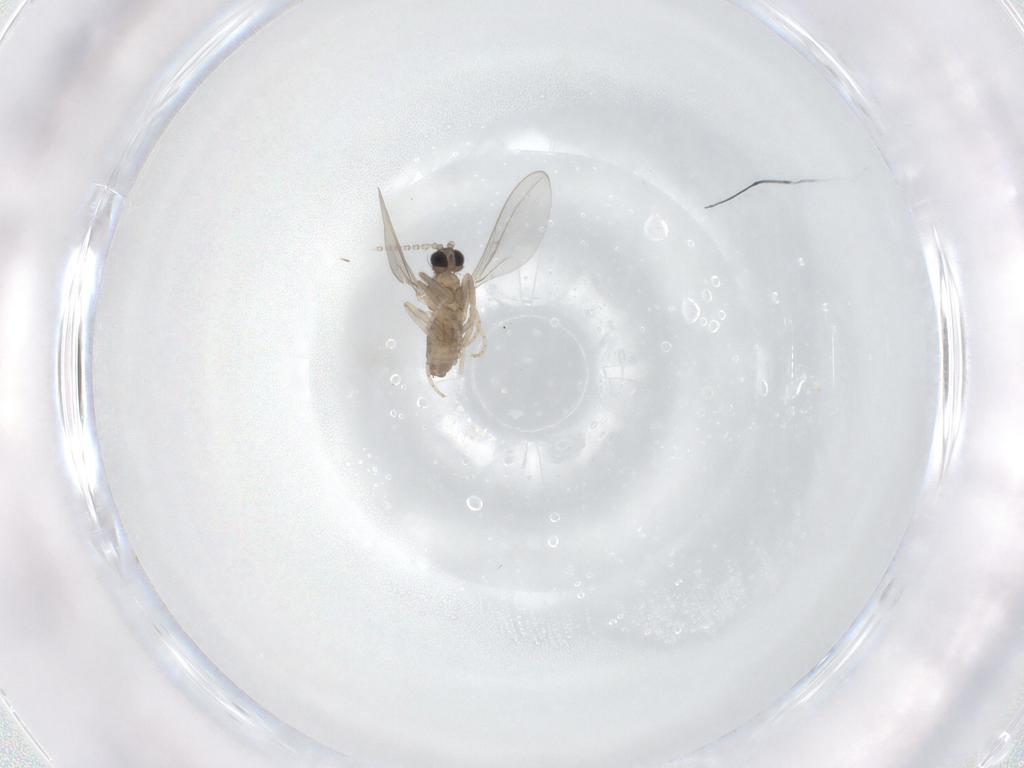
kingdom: Animalia
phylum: Arthropoda
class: Insecta
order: Diptera
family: Cecidomyiidae
